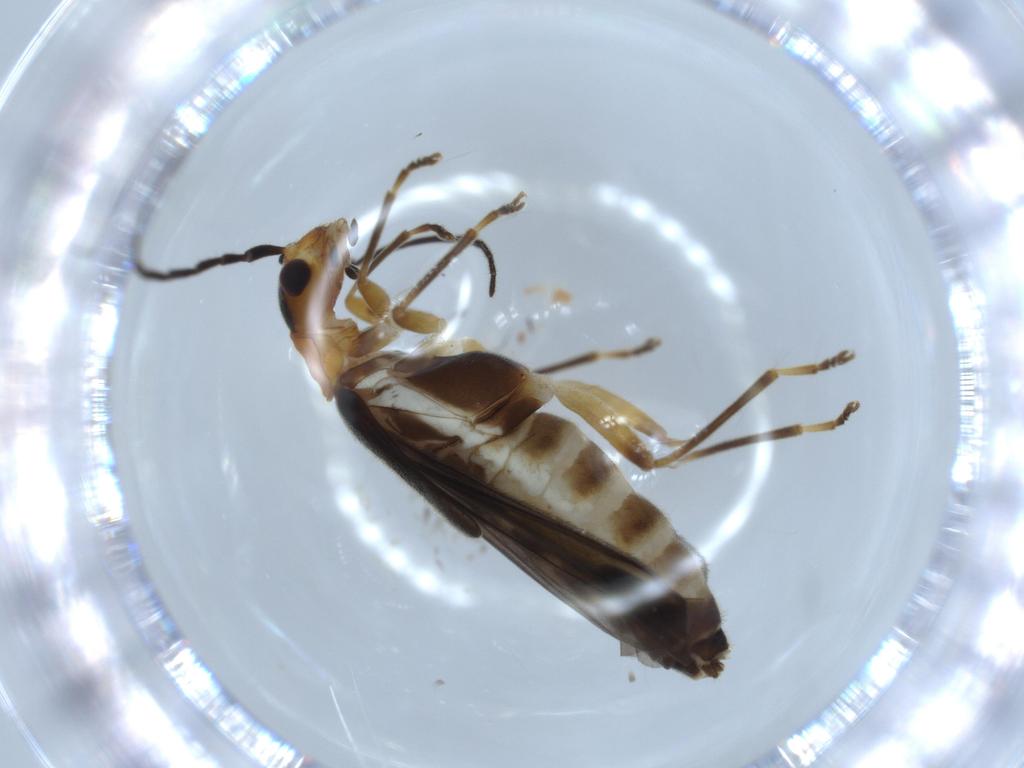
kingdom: Animalia
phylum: Arthropoda
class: Insecta
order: Coleoptera
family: Cantharidae
